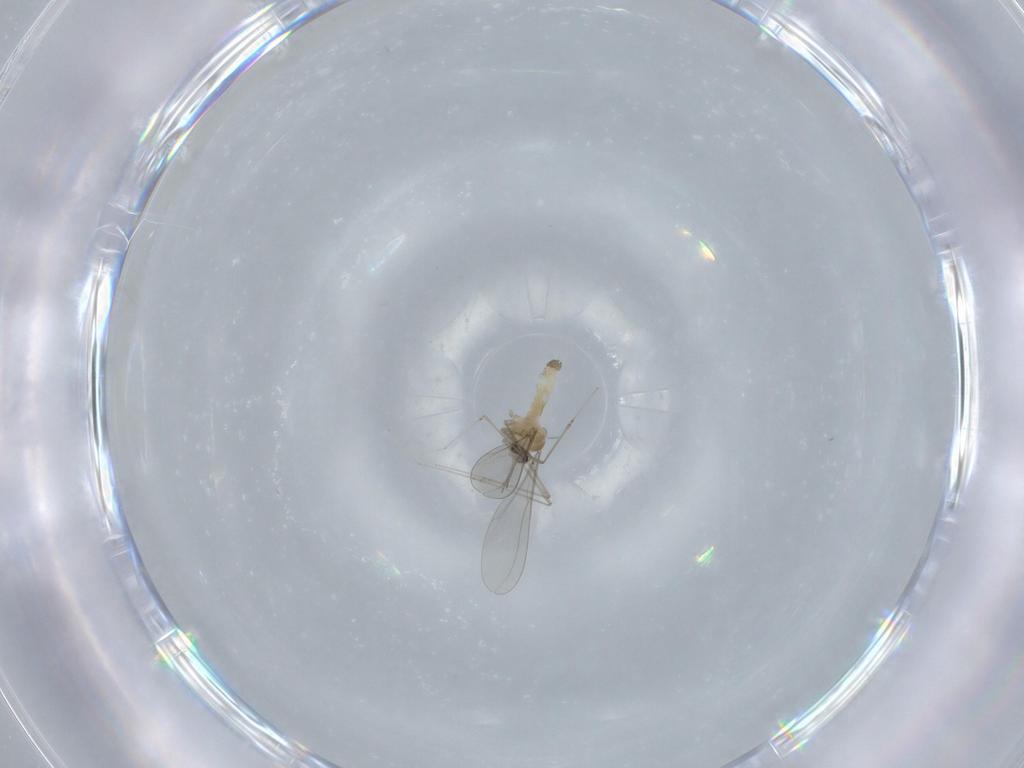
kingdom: Animalia
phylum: Arthropoda
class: Insecta
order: Diptera
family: Cecidomyiidae
